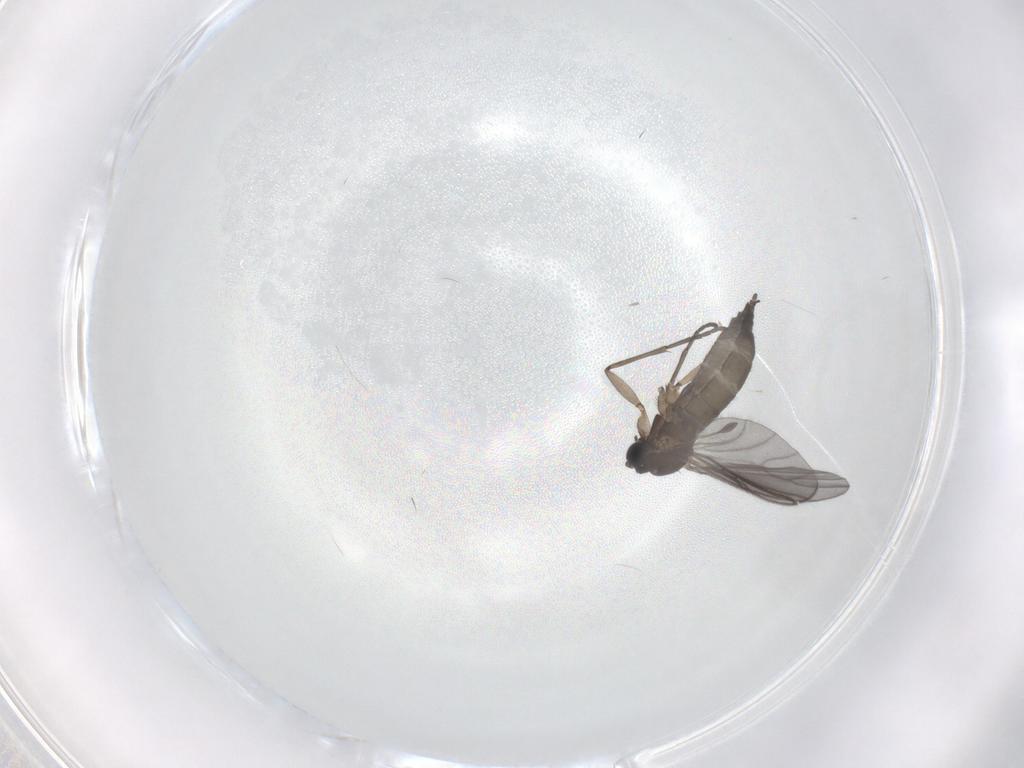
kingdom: Animalia
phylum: Arthropoda
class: Insecta
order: Diptera
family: Sciaridae
